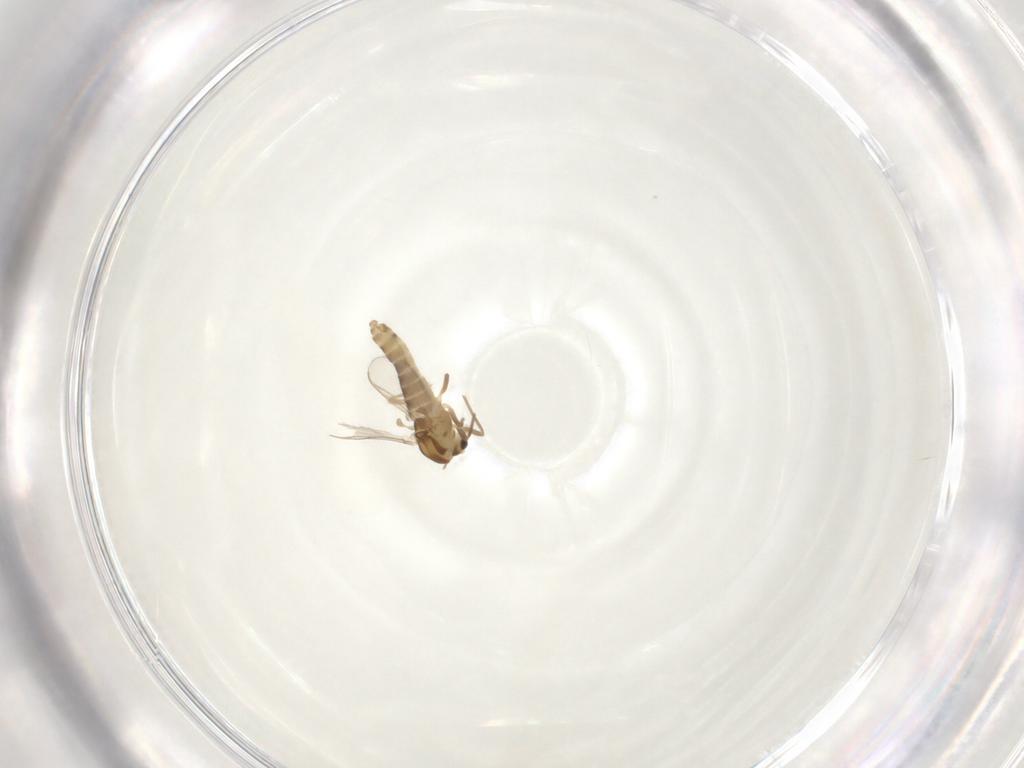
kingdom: Animalia
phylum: Arthropoda
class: Insecta
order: Diptera
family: Chironomidae
